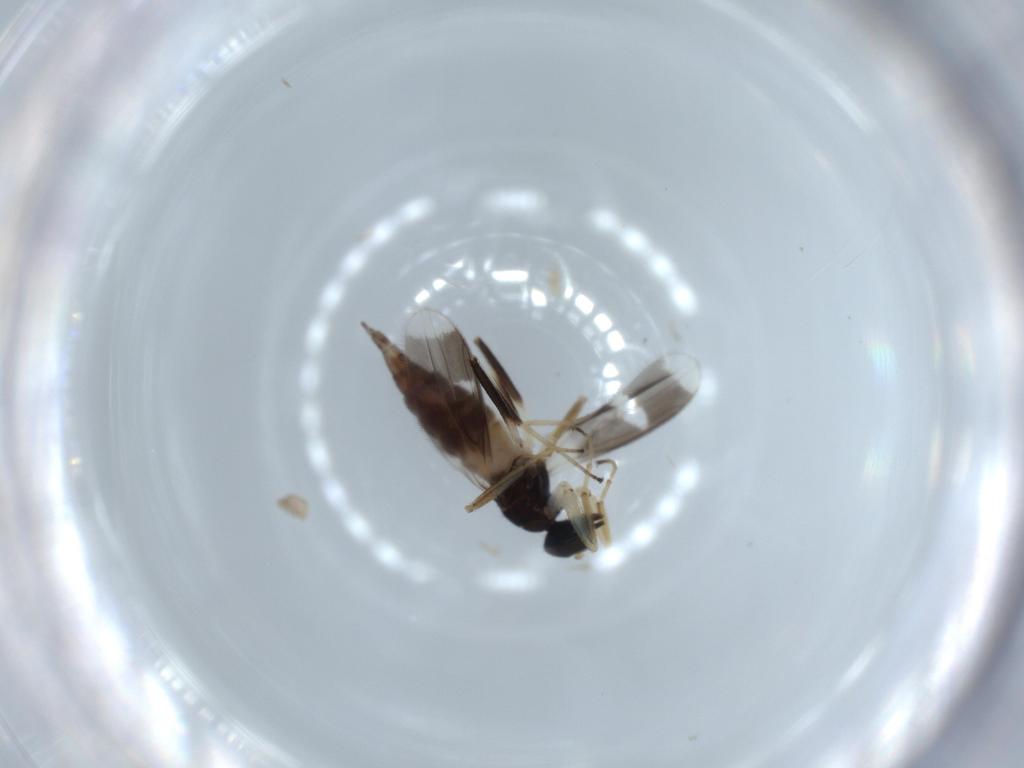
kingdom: Animalia
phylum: Arthropoda
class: Insecta
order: Diptera
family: Hybotidae
